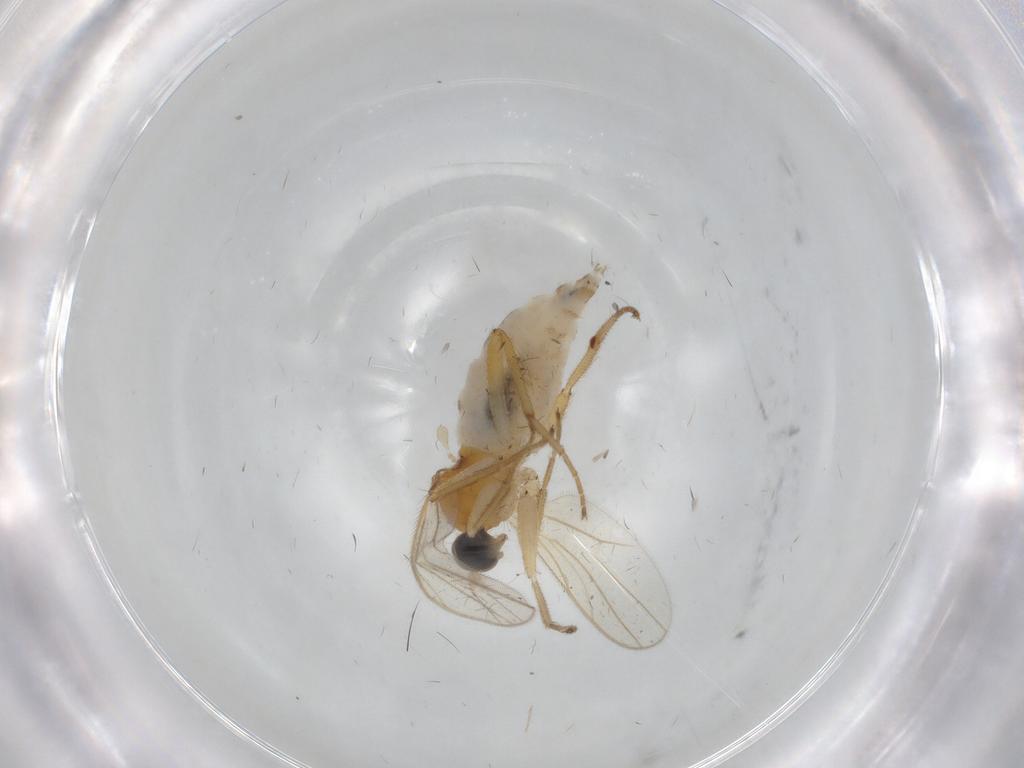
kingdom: Animalia
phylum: Arthropoda
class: Insecta
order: Diptera
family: Hybotidae
